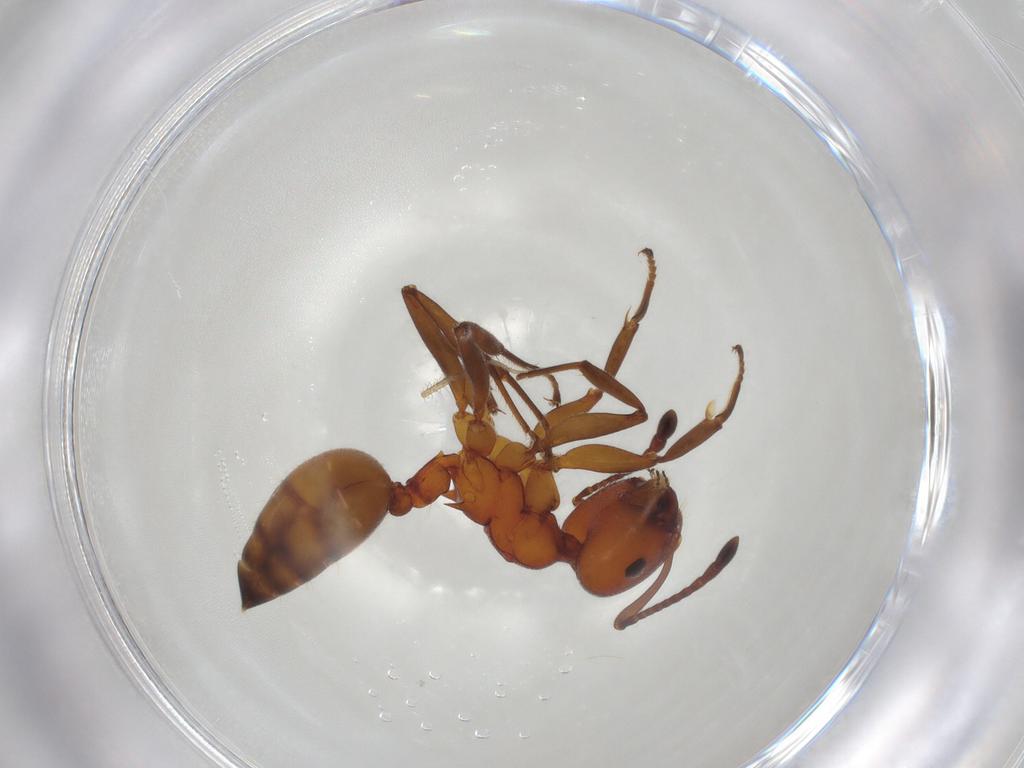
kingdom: Animalia
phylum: Arthropoda
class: Insecta
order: Hymenoptera
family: Formicidae
